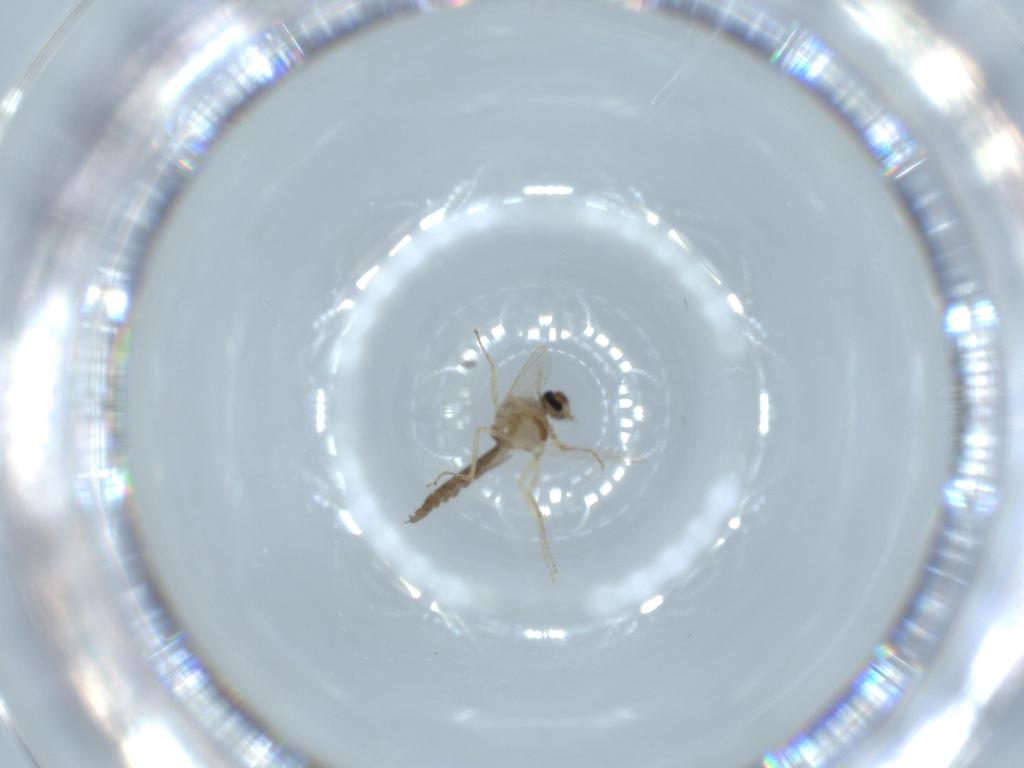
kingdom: Animalia
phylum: Arthropoda
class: Insecta
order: Diptera
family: Ceratopogonidae
